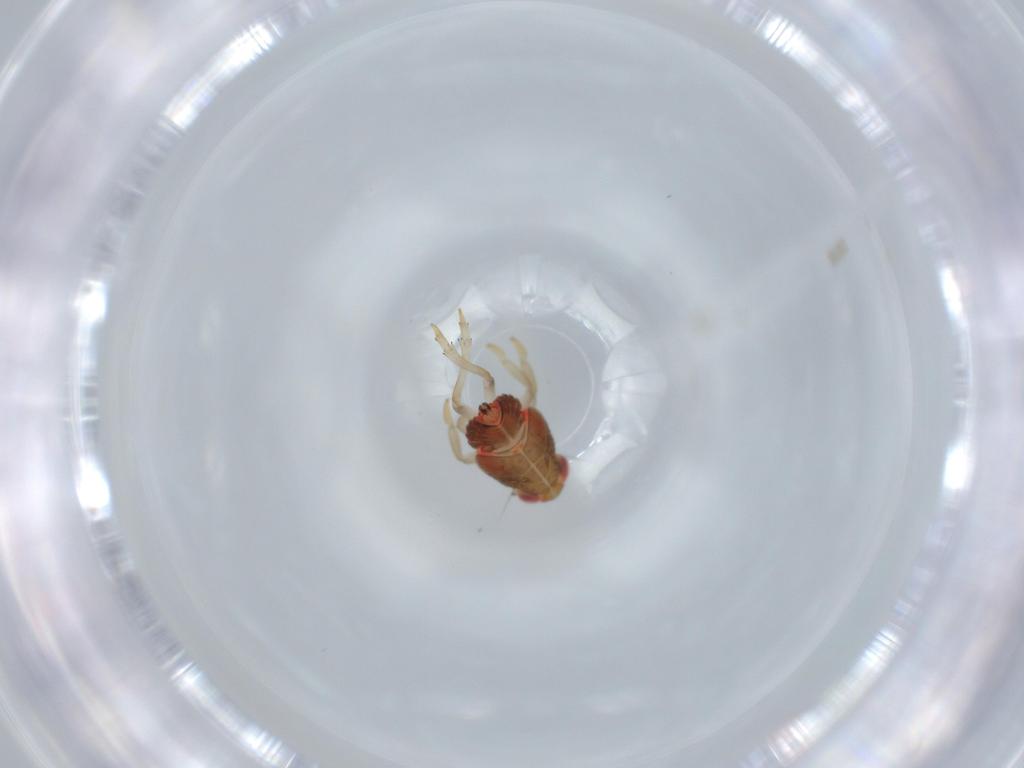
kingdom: Animalia
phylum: Arthropoda
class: Insecta
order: Hemiptera
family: Issidae
